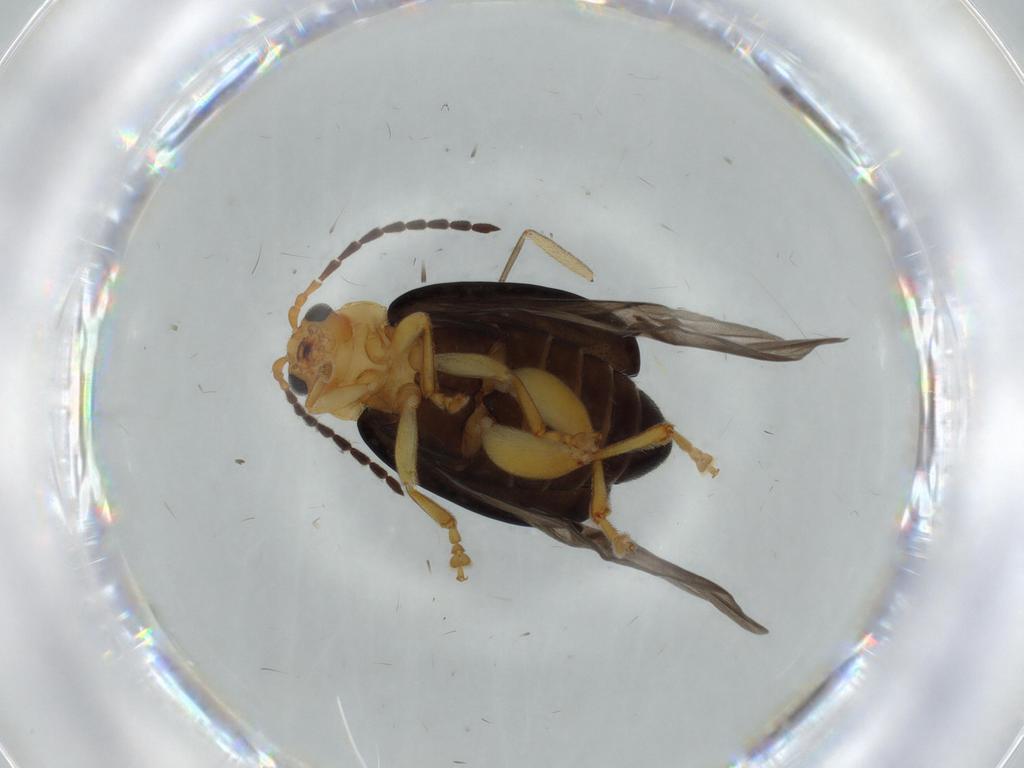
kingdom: Animalia
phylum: Arthropoda
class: Insecta
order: Coleoptera
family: Chrysomelidae
